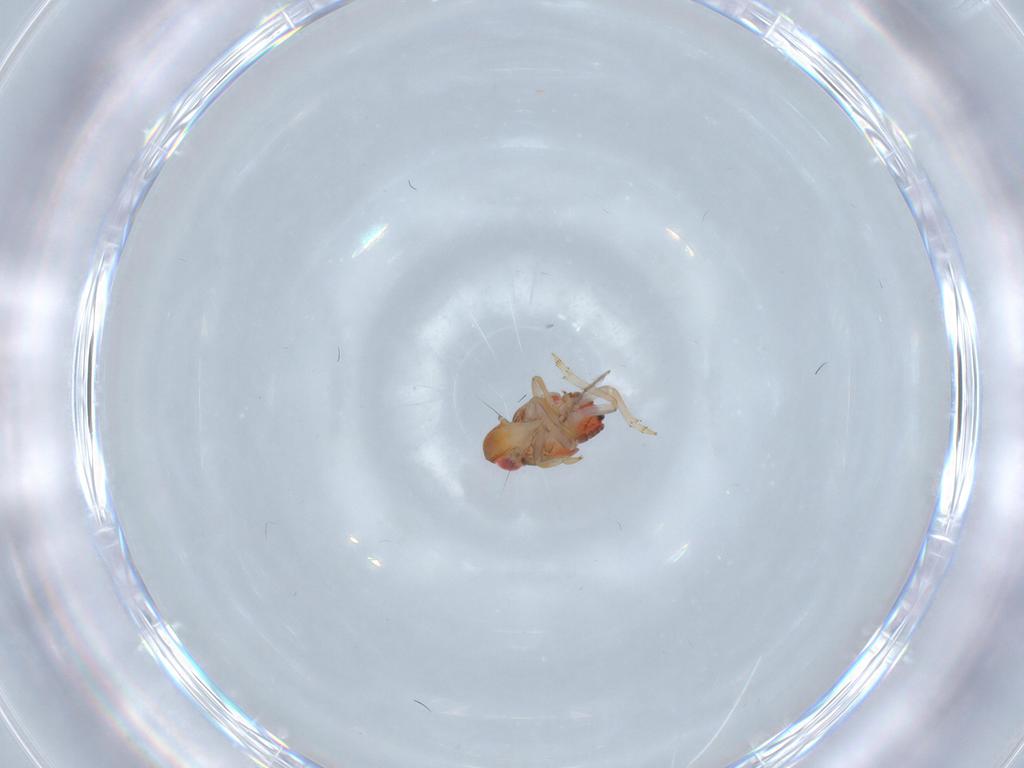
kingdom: Animalia
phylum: Arthropoda
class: Insecta
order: Hemiptera
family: Issidae
